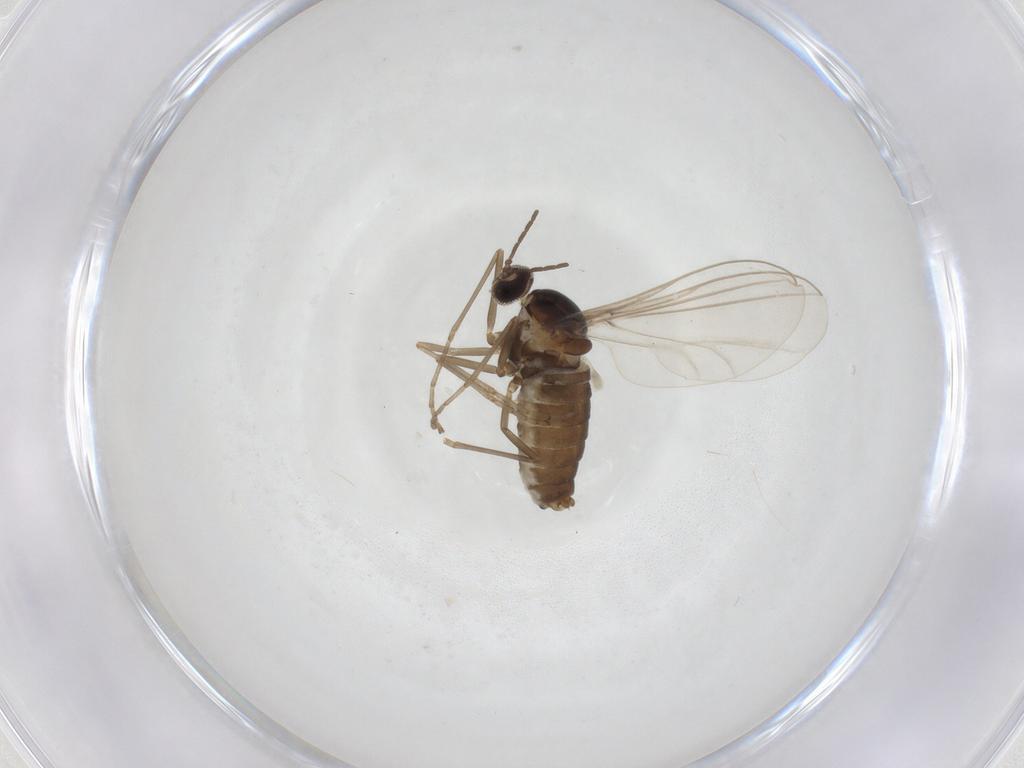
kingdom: Animalia
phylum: Arthropoda
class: Insecta
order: Diptera
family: Cecidomyiidae
